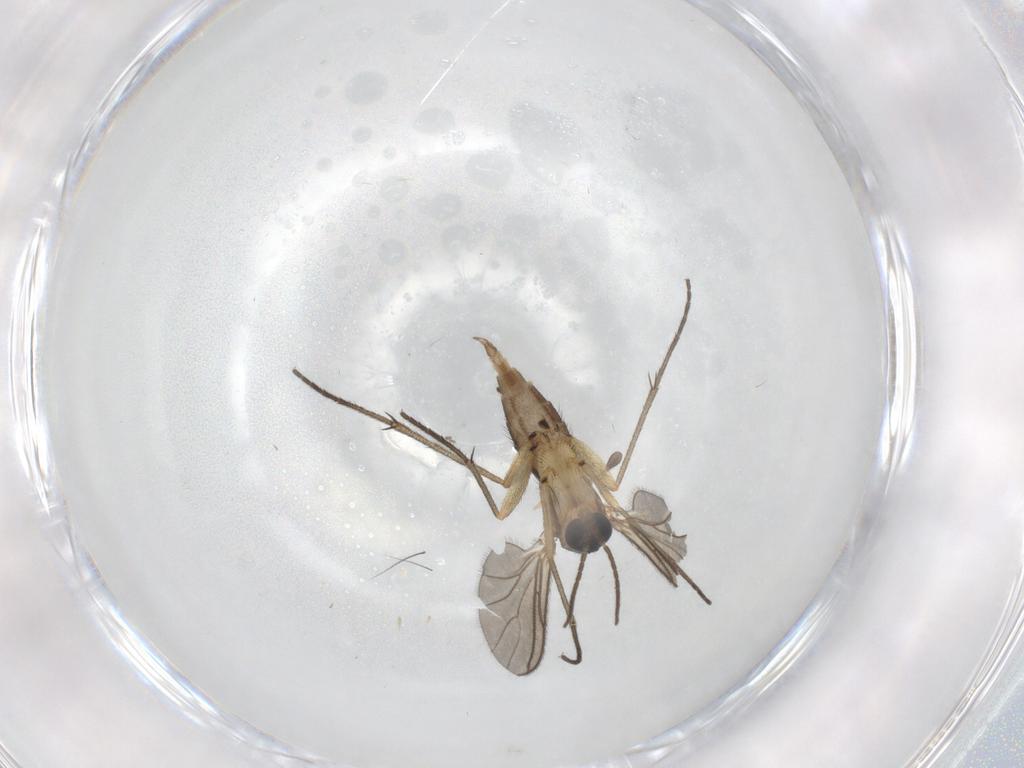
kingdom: Animalia
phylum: Arthropoda
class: Insecta
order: Diptera
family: Sciaridae
